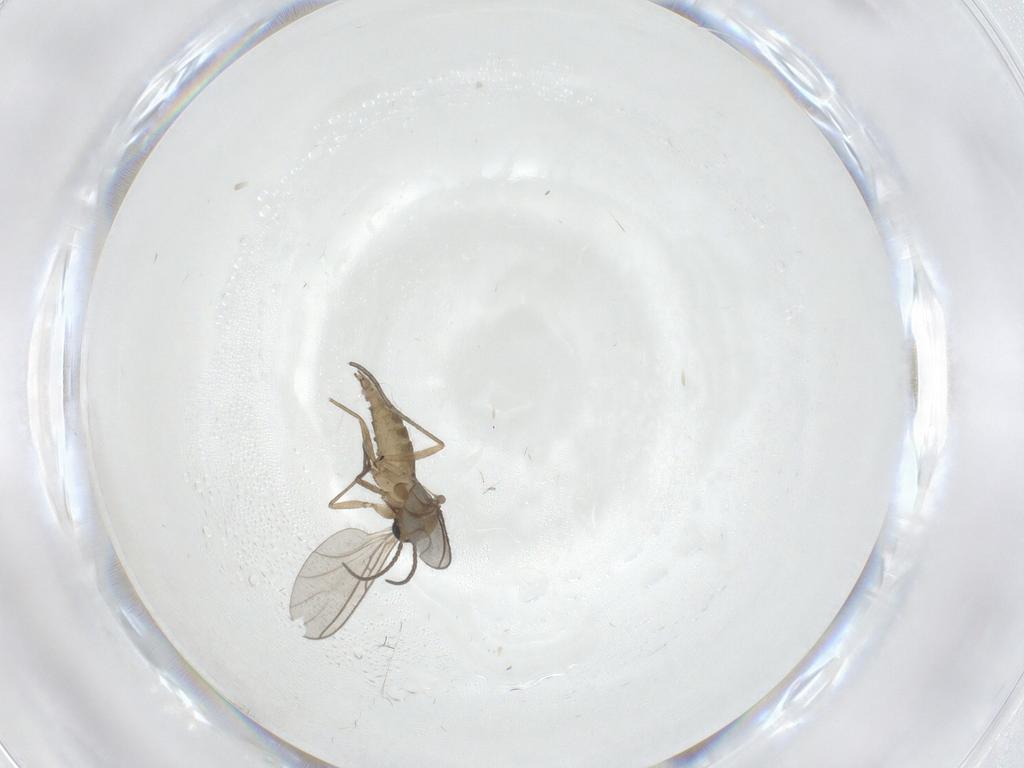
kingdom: Animalia
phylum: Arthropoda
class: Insecta
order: Diptera
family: Sciaridae
